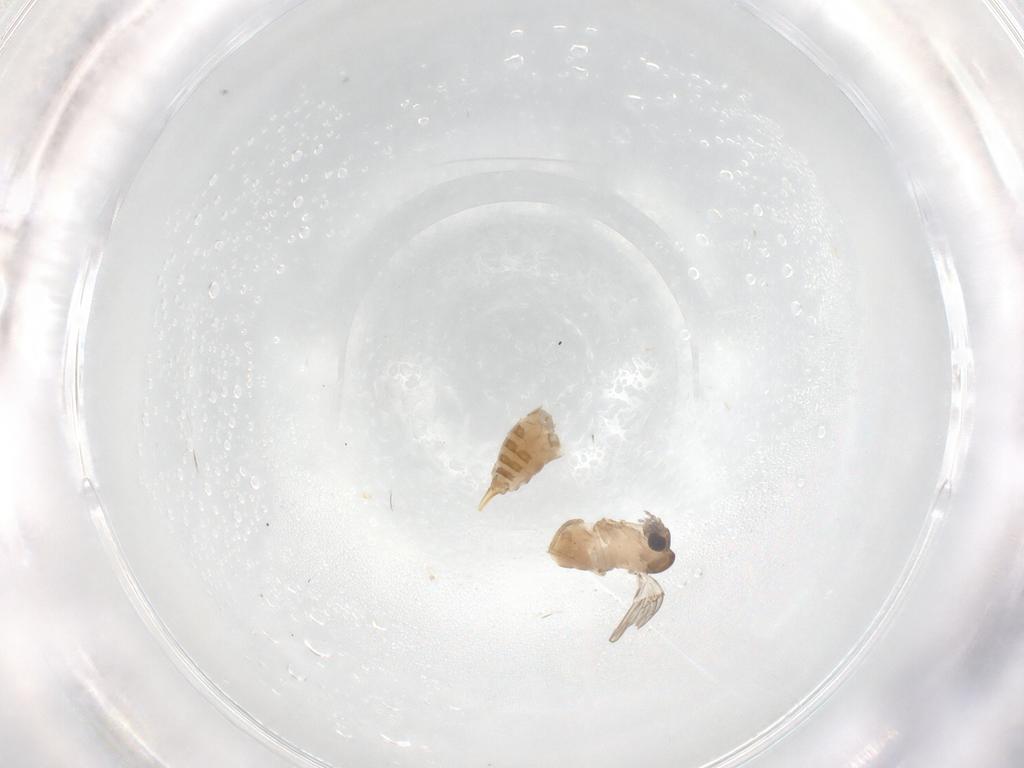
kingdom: Animalia
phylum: Arthropoda
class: Insecta
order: Diptera
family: Psychodidae
